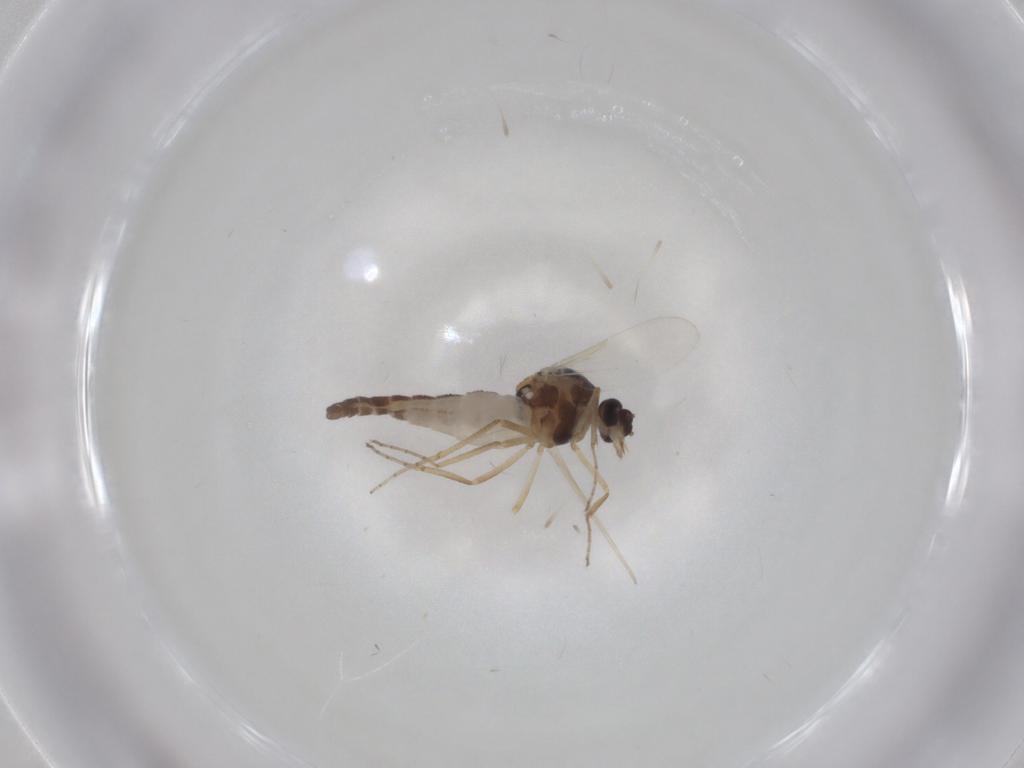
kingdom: Animalia
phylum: Arthropoda
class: Insecta
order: Diptera
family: Ceratopogonidae
